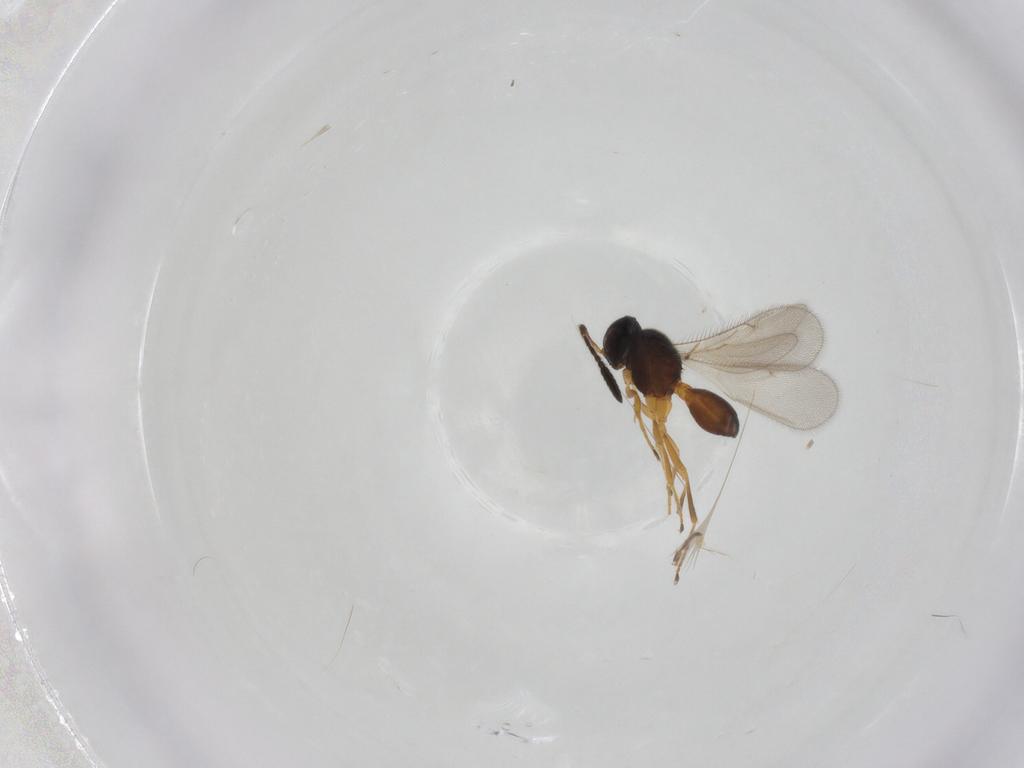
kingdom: Animalia
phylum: Arthropoda
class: Insecta
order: Hymenoptera
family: Scelionidae
